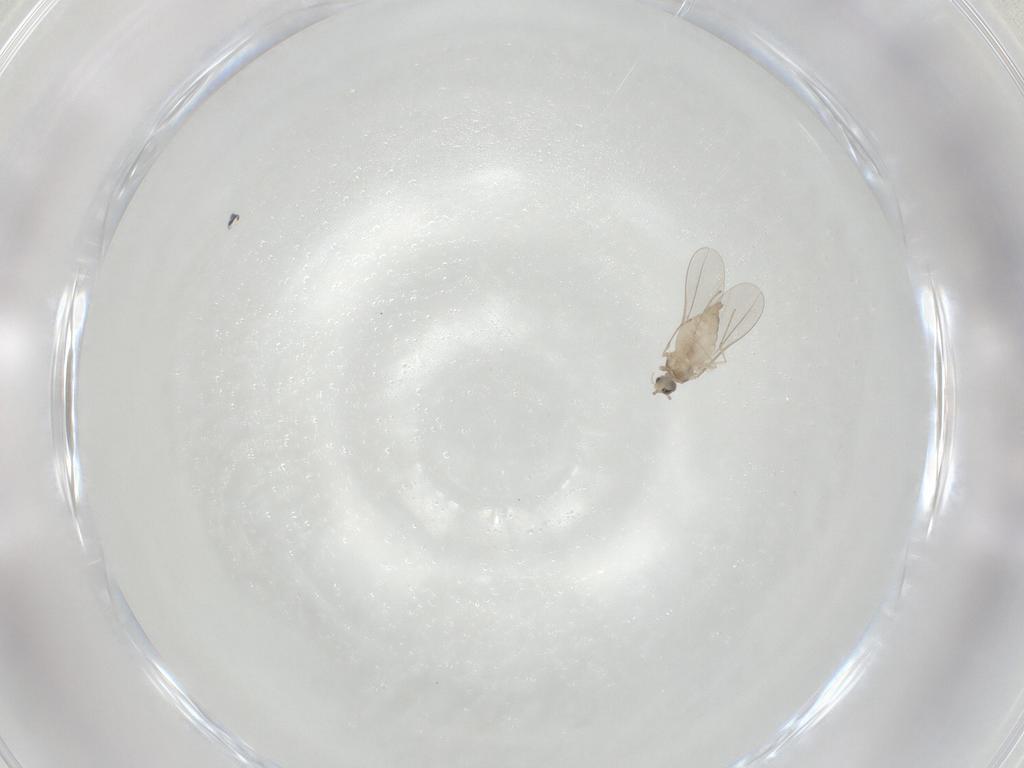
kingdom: Animalia
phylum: Arthropoda
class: Insecta
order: Diptera
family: Cecidomyiidae
